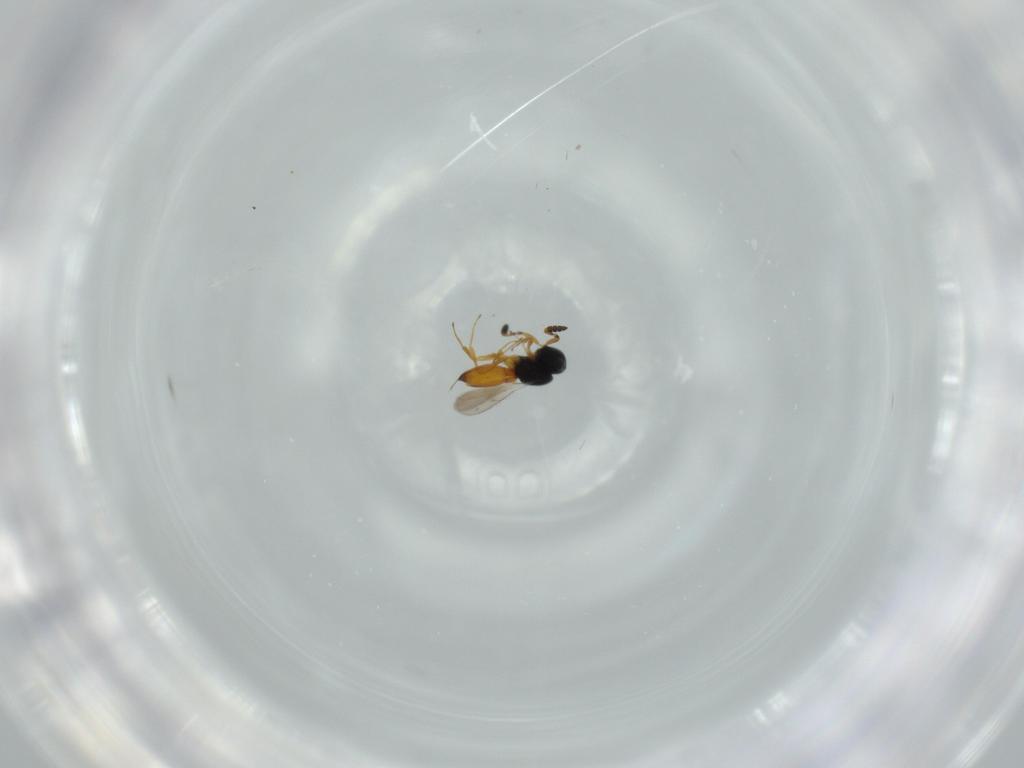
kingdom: Animalia
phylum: Arthropoda
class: Insecta
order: Hymenoptera
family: Scelionidae
